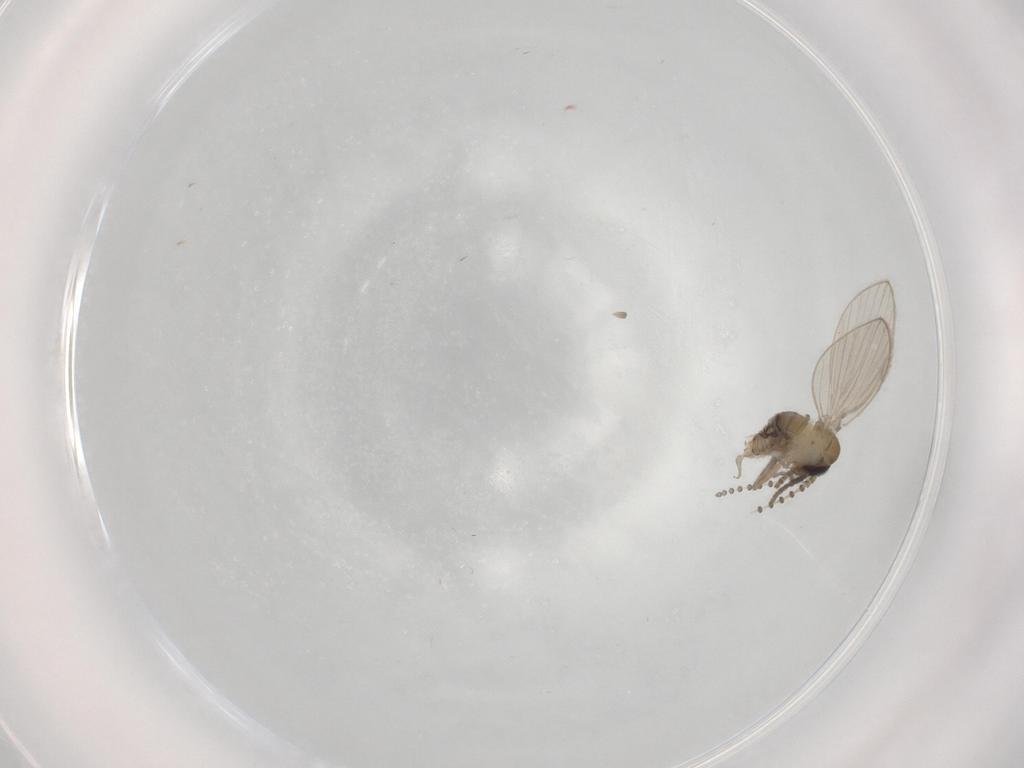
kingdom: Animalia
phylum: Arthropoda
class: Insecta
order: Diptera
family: Psychodidae
